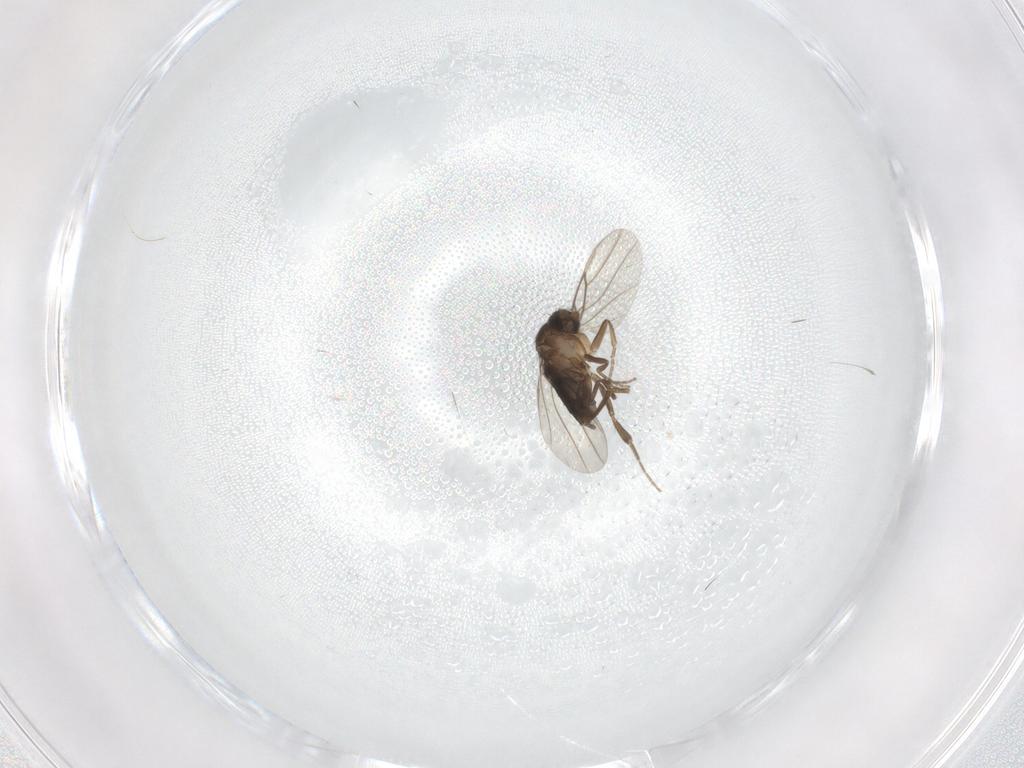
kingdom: Animalia
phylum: Arthropoda
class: Insecta
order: Diptera
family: Phoridae
